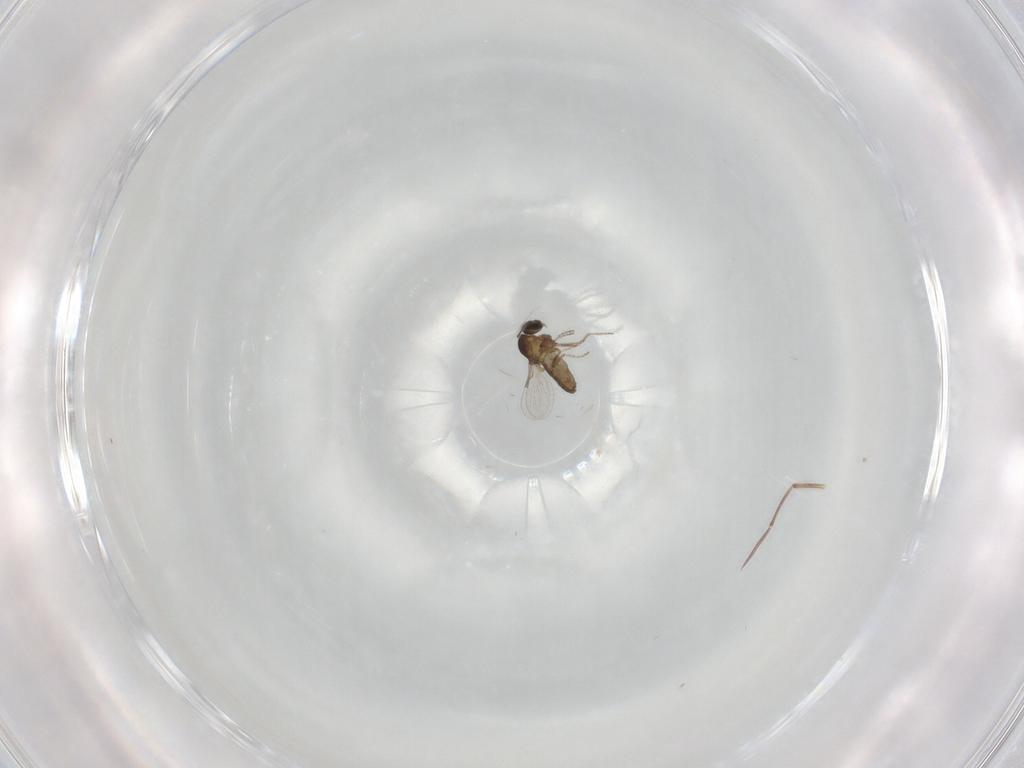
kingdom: Animalia
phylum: Arthropoda
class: Insecta
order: Diptera
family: Ceratopogonidae
